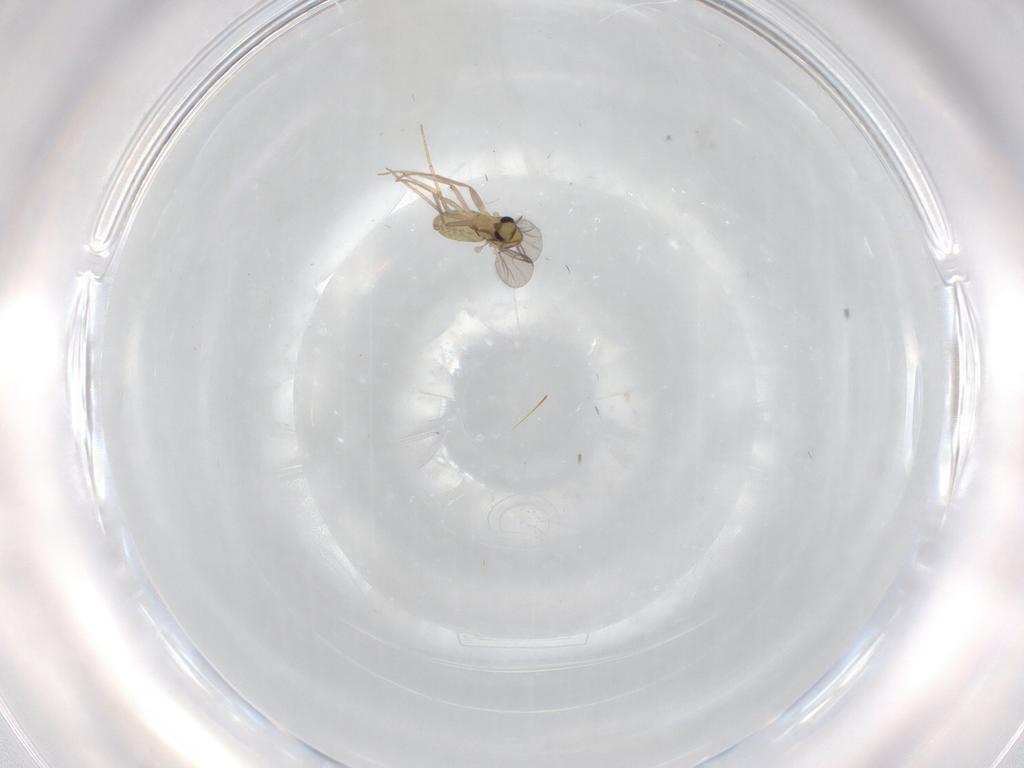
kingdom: Animalia
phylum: Arthropoda
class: Insecta
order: Diptera
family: Chironomidae
